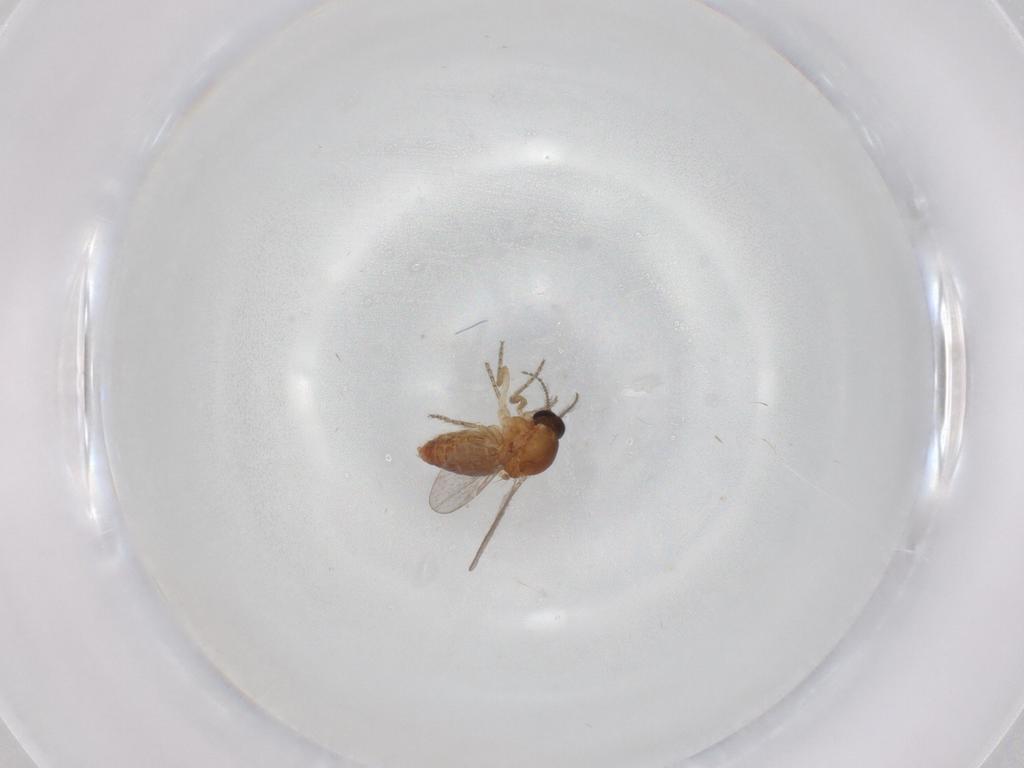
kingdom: Animalia
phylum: Arthropoda
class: Insecta
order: Diptera
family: Ceratopogonidae
